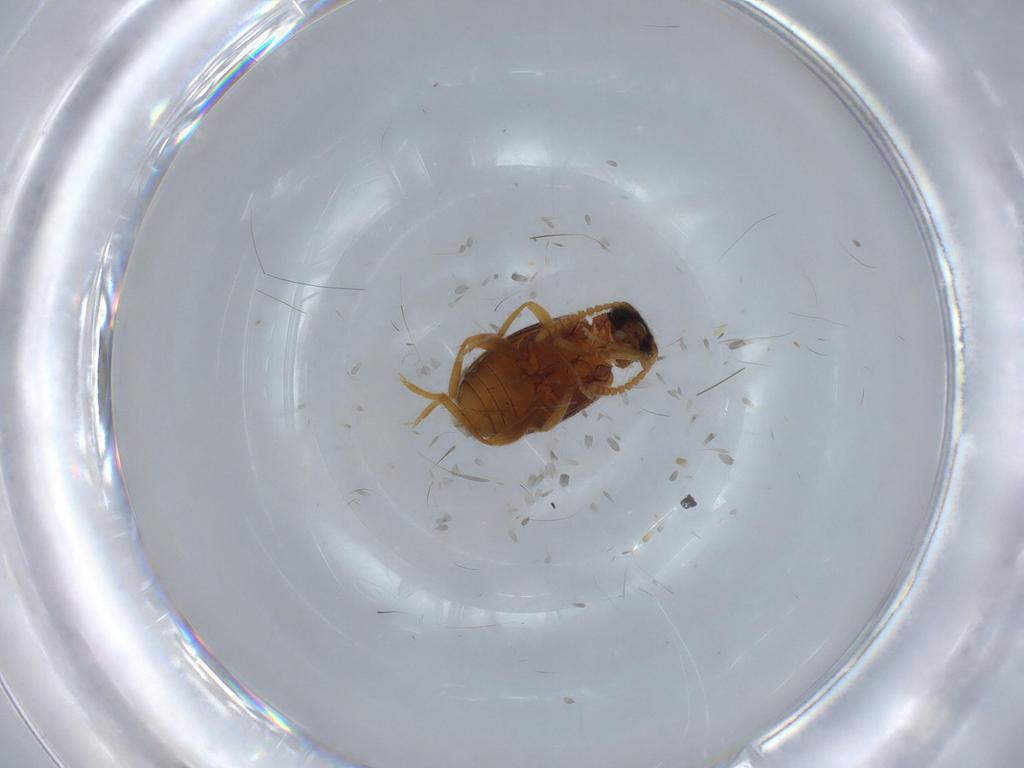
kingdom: Animalia
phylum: Arthropoda
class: Insecta
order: Coleoptera
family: Aderidae
